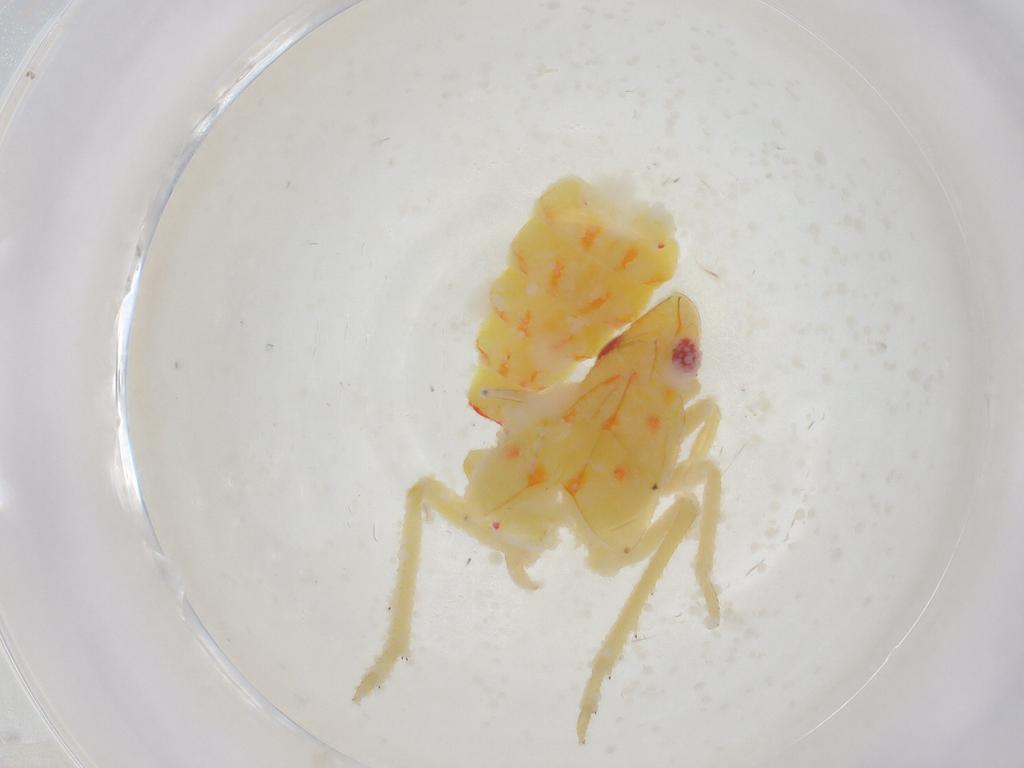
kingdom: Animalia
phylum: Arthropoda
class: Insecta
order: Hemiptera
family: Tropiduchidae
